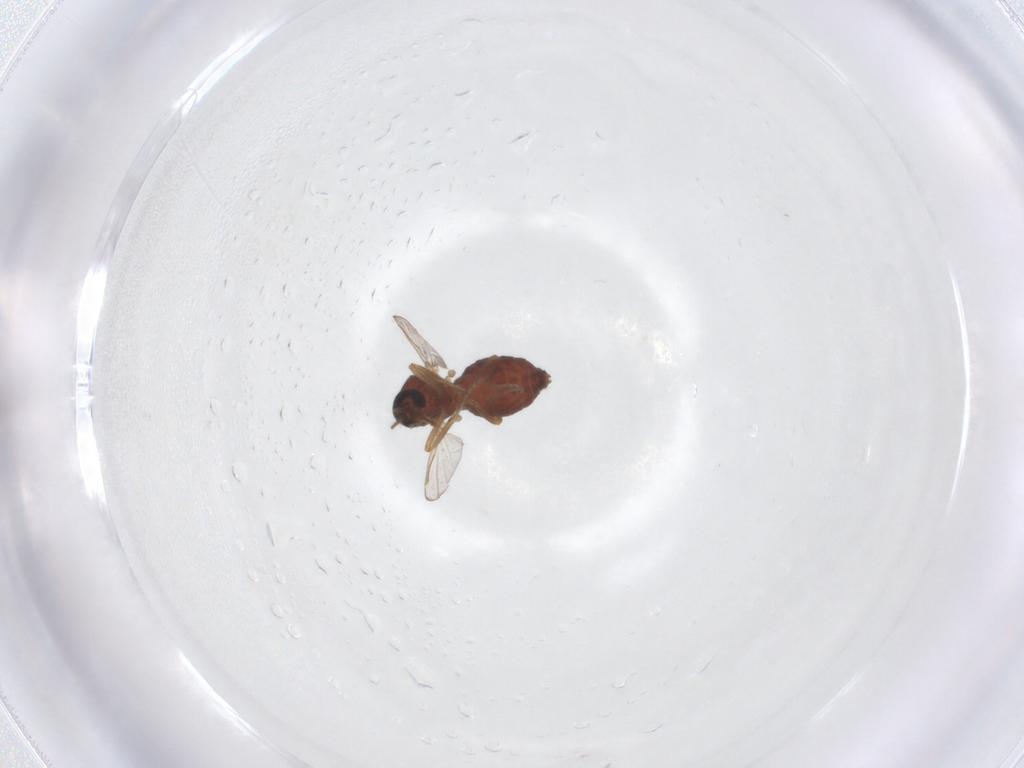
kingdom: Animalia
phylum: Arthropoda
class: Insecta
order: Diptera
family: Ceratopogonidae
